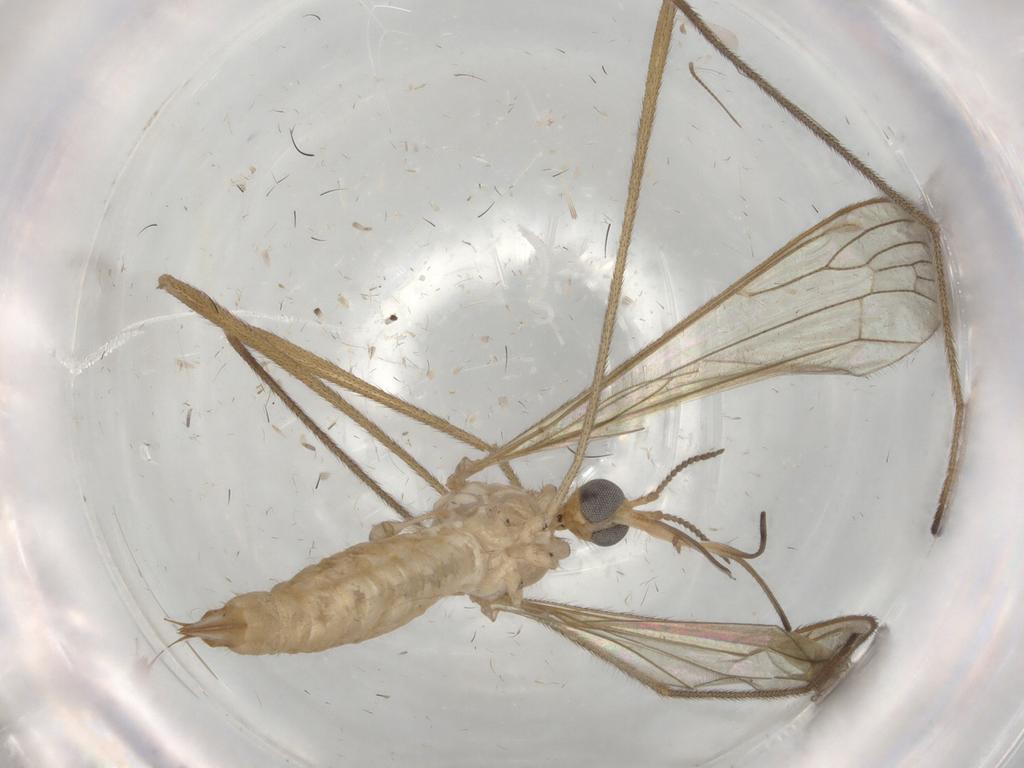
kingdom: Animalia
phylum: Arthropoda
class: Insecta
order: Diptera
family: Limoniidae
